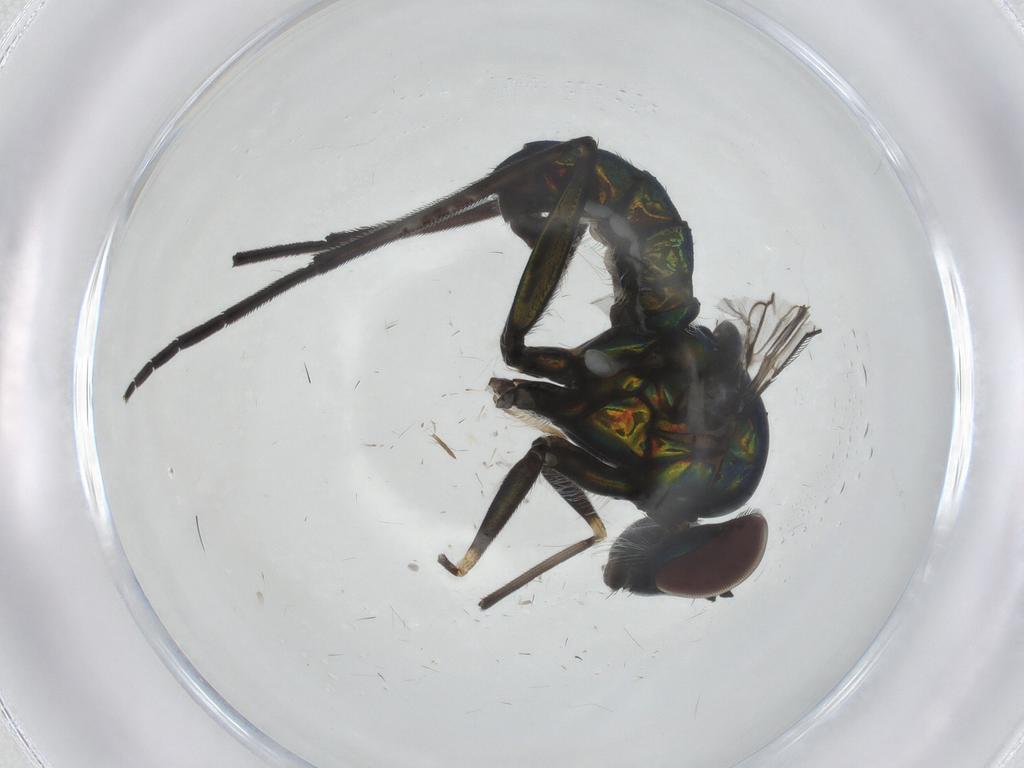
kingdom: Animalia
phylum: Arthropoda
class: Insecta
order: Diptera
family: Dolichopodidae
